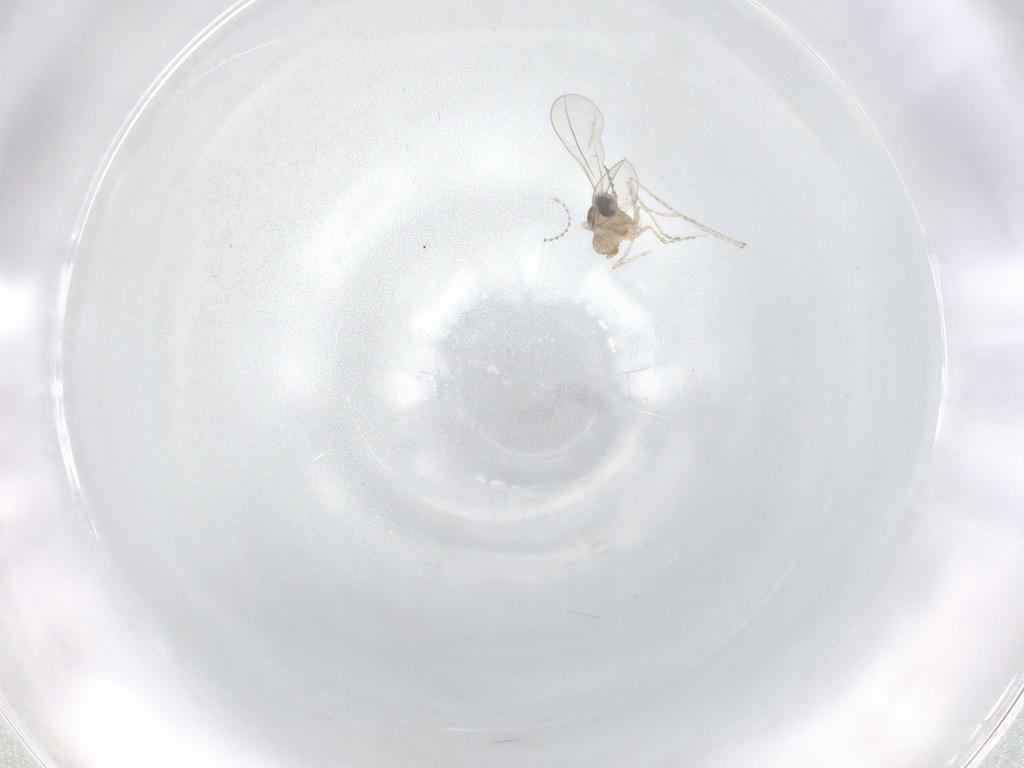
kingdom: Animalia
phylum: Arthropoda
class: Insecta
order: Diptera
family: Cecidomyiidae
